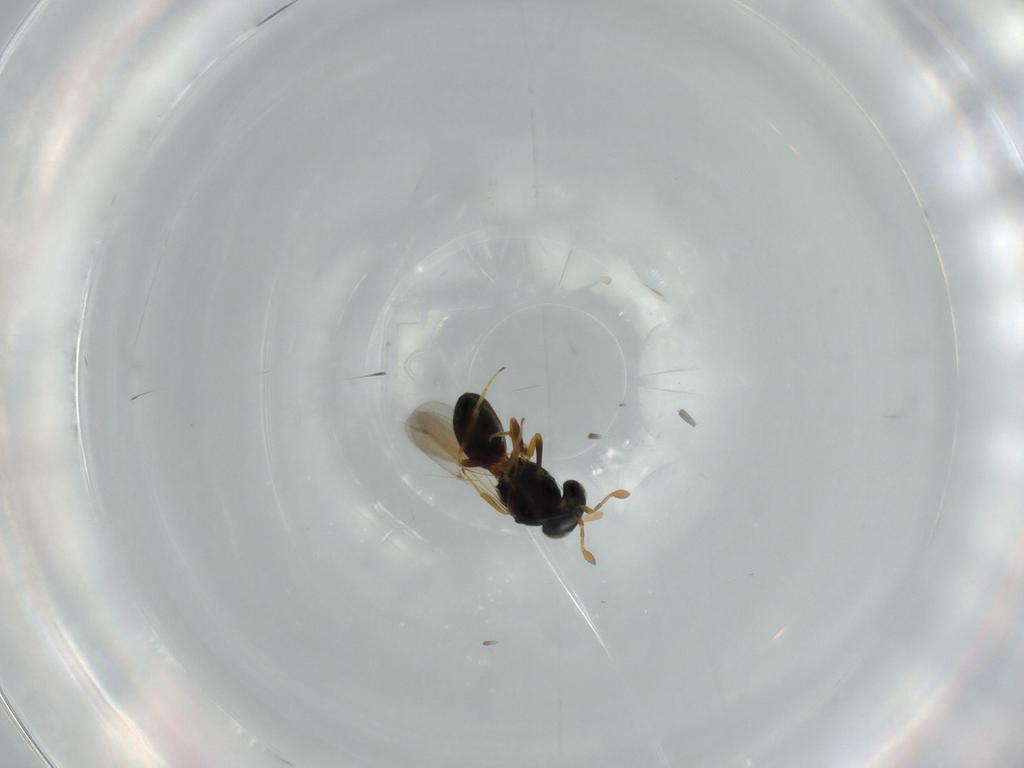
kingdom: Animalia
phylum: Arthropoda
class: Insecta
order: Hymenoptera
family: Scelionidae
